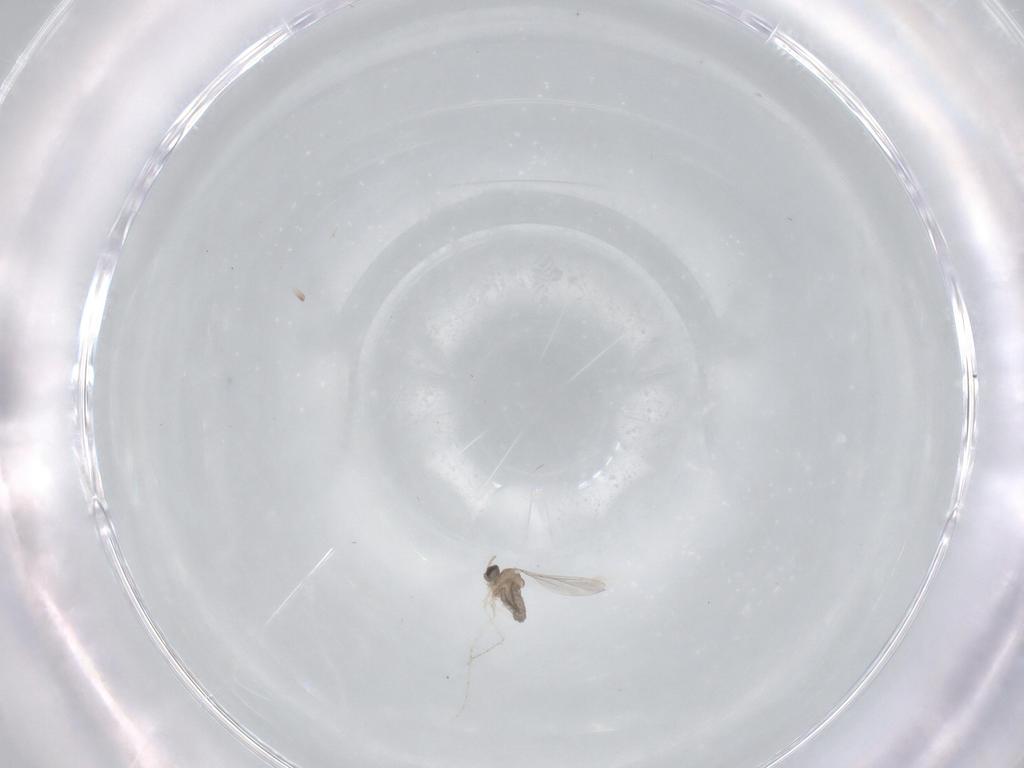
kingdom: Animalia
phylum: Arthropoda
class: Insecta
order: Diptera
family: Cecidomyiidae
